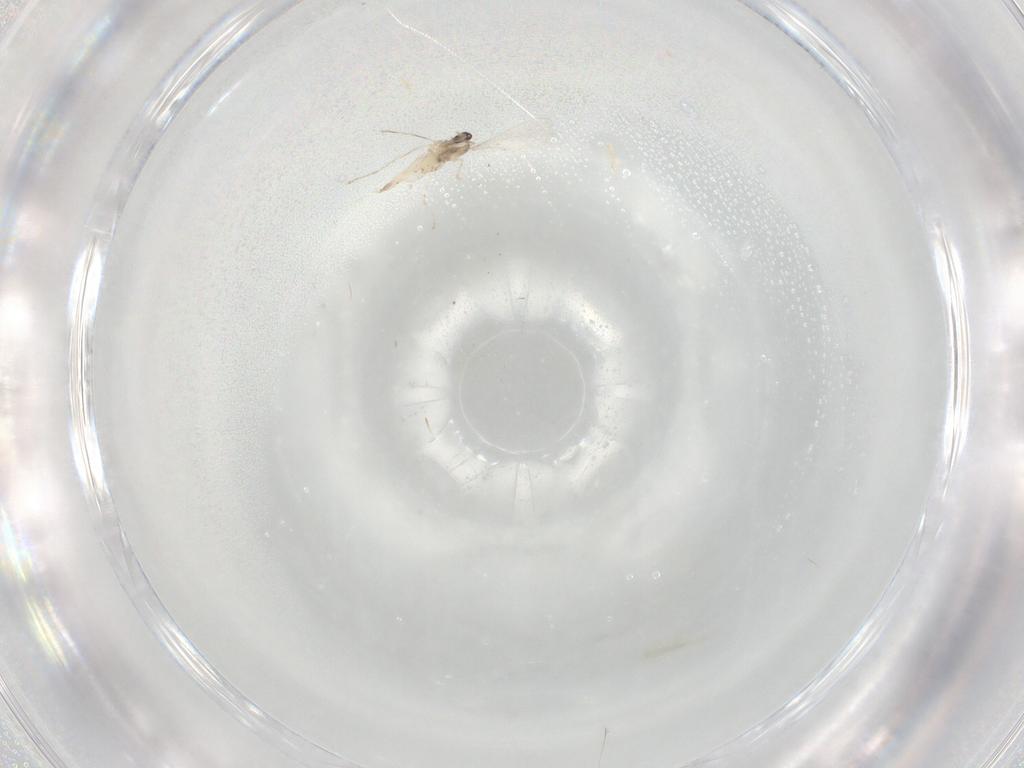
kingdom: Animalia
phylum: Arthropoda
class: Insecta
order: Diptera
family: Cecidomyiidae
